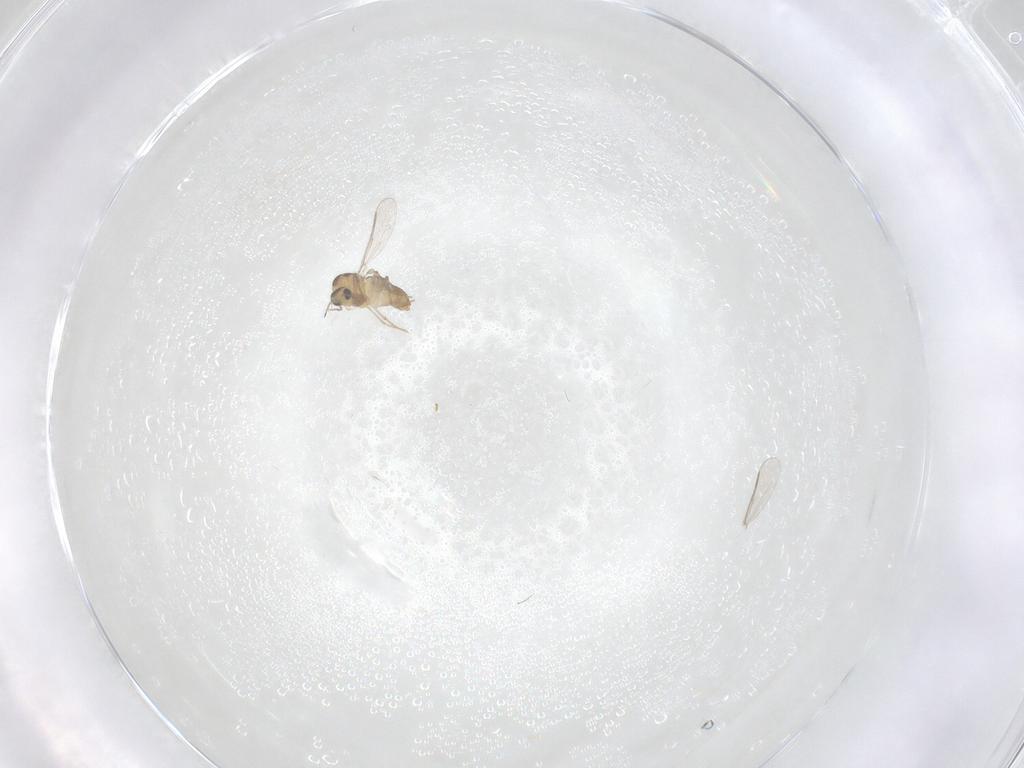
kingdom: Animalia
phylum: Arthropoda
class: Insecta
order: Diptera
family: Chironomidae
